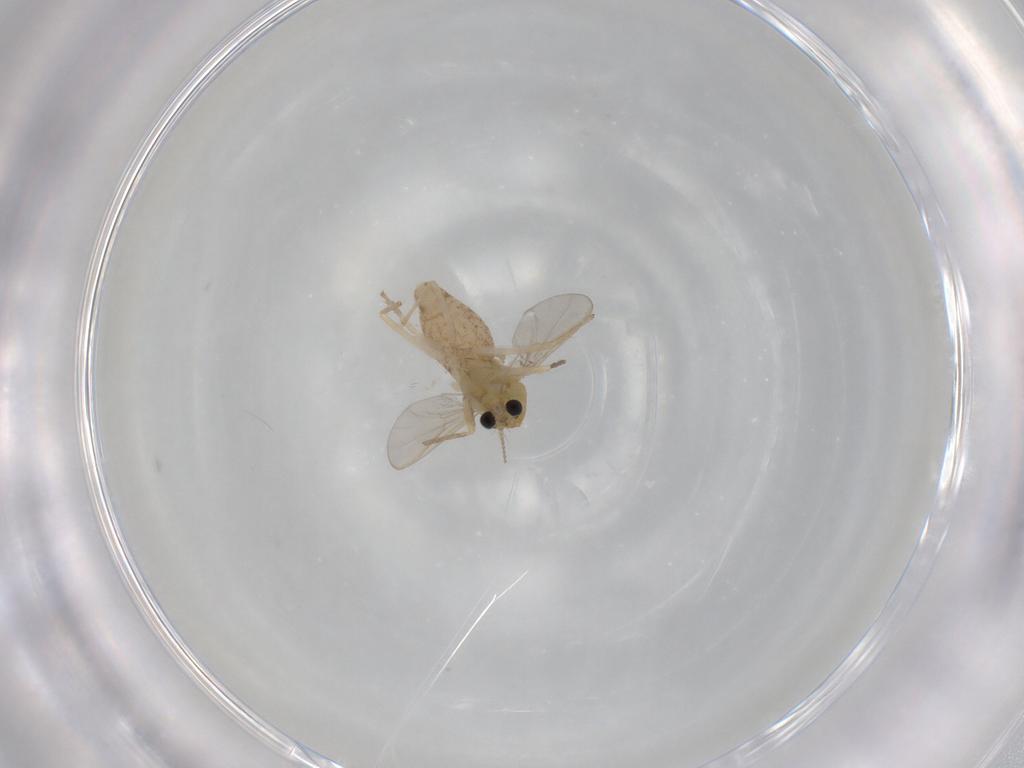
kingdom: Animalia
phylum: Arthropoda
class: Insecta
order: Diptera
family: Chironomidae
